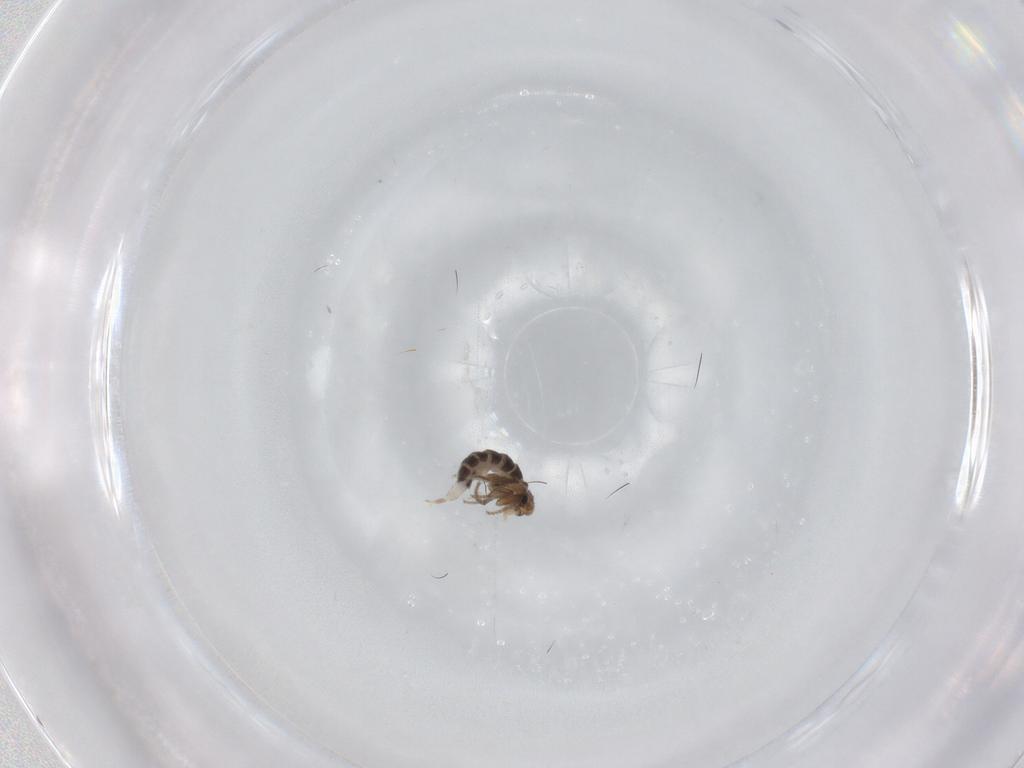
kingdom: Animalia
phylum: Arthropoda
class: Insecta
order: Diptera
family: Phoridae
